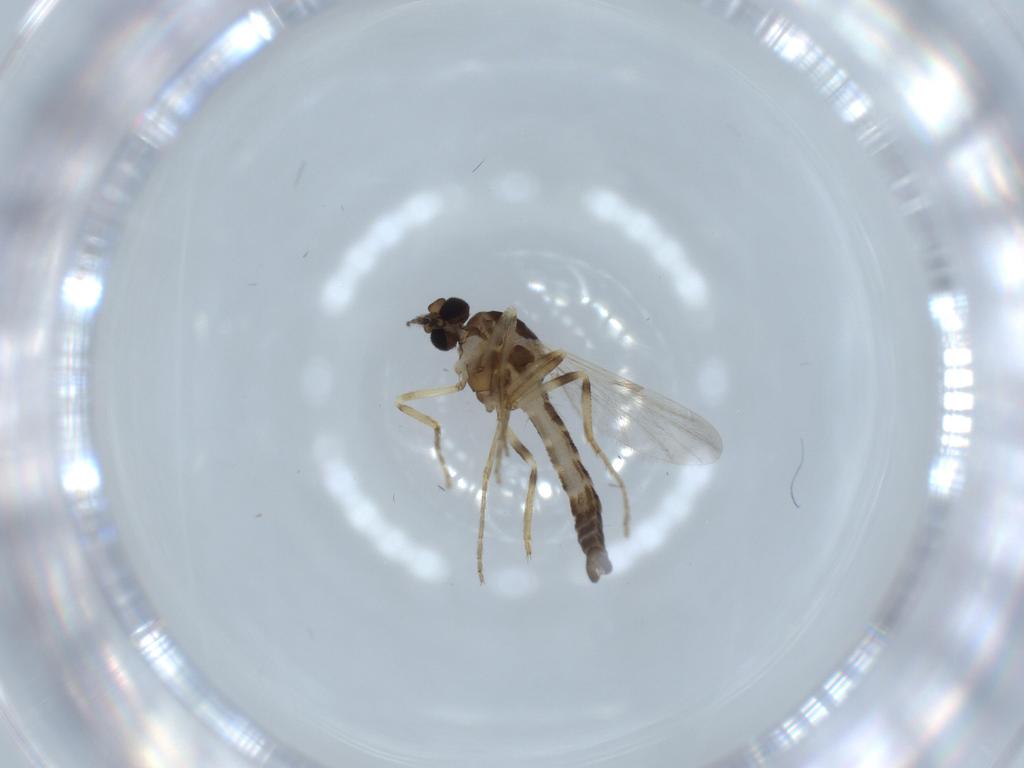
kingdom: Animalia
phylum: Arthropoda
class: Insecta
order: Diptera
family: Ceratopogonidae
